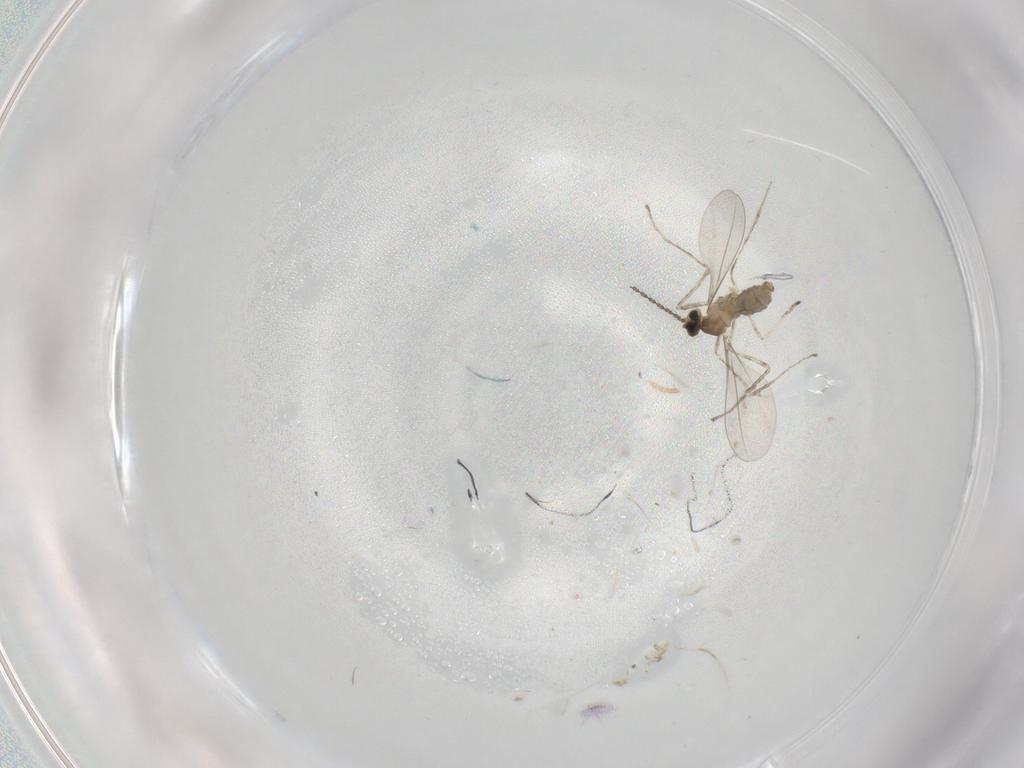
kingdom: Animalia
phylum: Arthropoda
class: Insecta
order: Diptera
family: Cecidomyiidae
